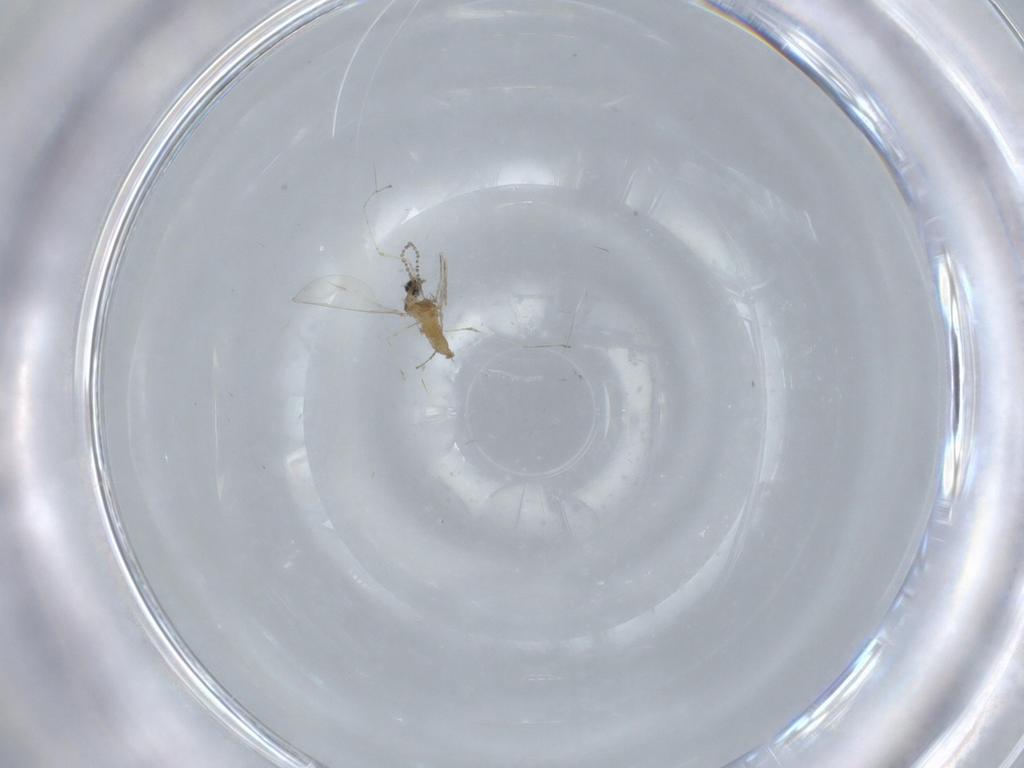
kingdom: Animalia
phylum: Arthropoda
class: Insecta
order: Diptera
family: Cecidomyiidae
